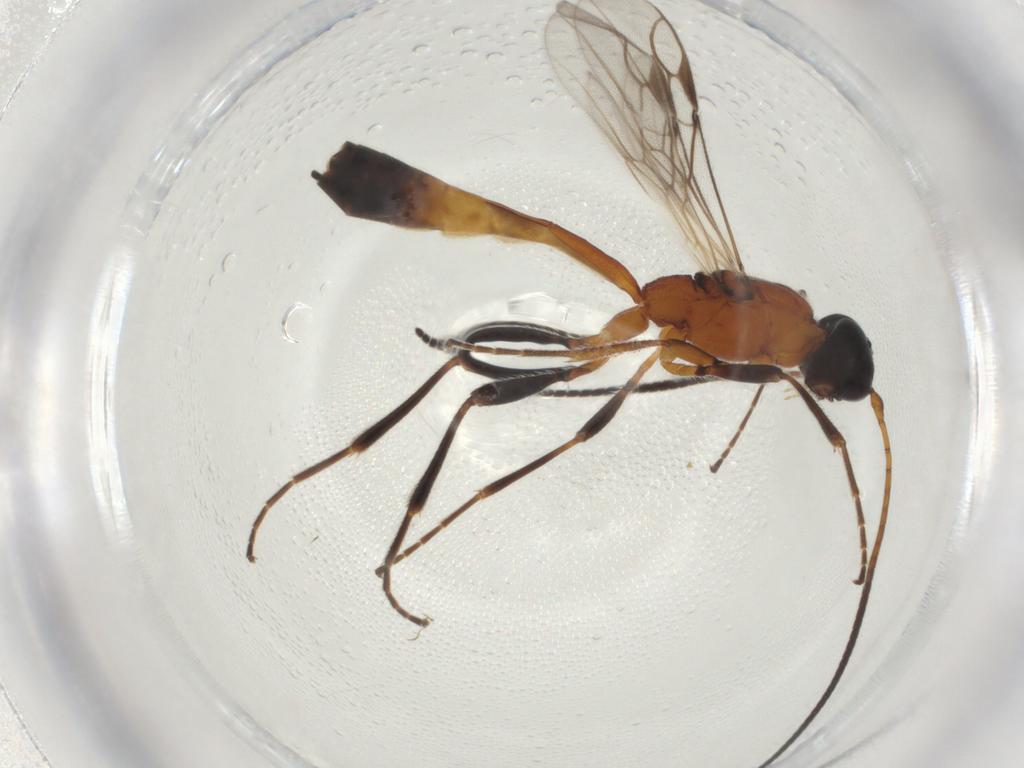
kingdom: Animalia
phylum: Arthropoda
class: Insecta
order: Hymenoptera
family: Braconidae
